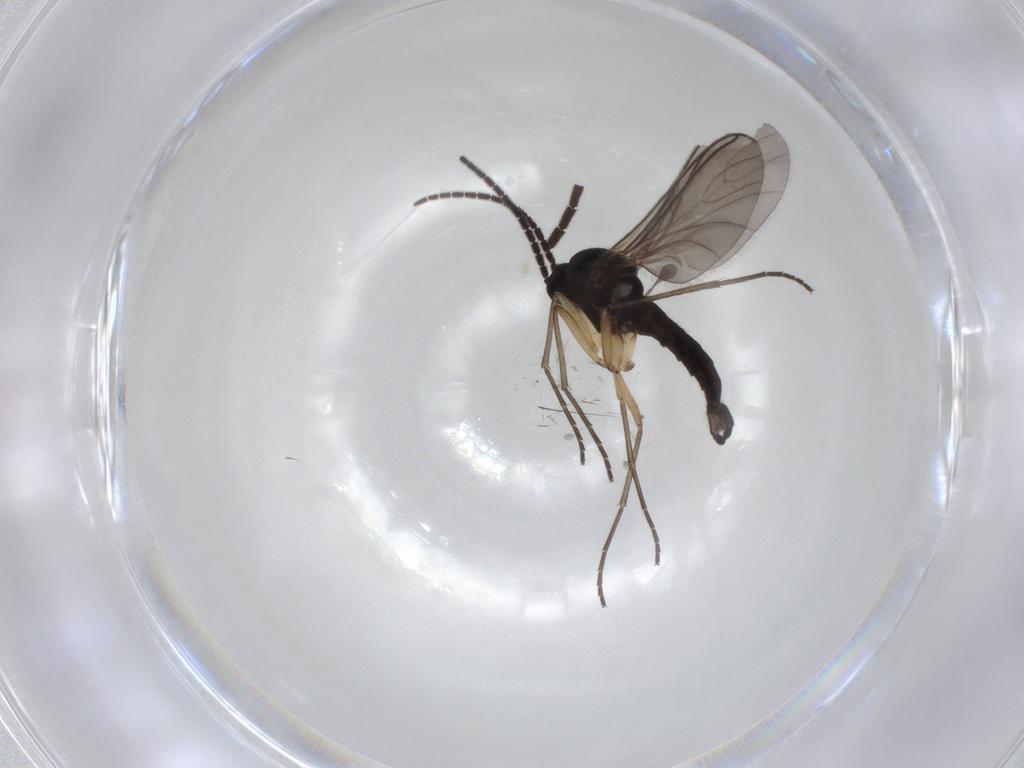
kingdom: Animalia
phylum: Arthropoda
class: Insecta
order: Diptera
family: Sciaridae
